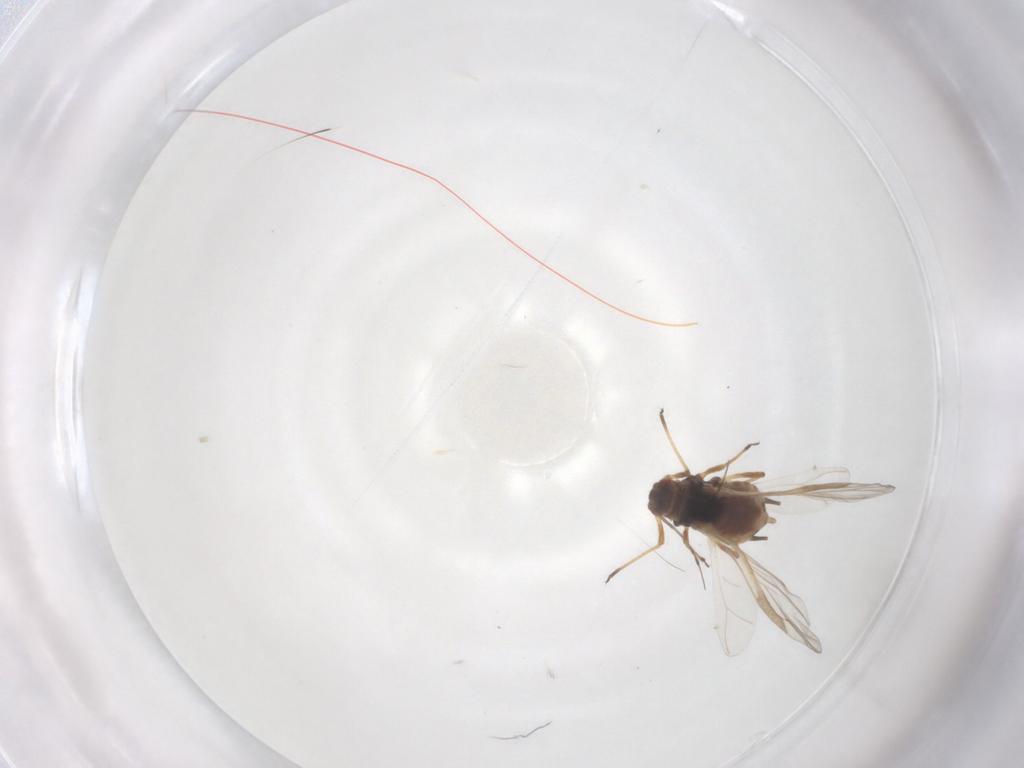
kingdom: Animalia
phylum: Arthropoda
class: Insecta
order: Hemiptera
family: Aphididae
